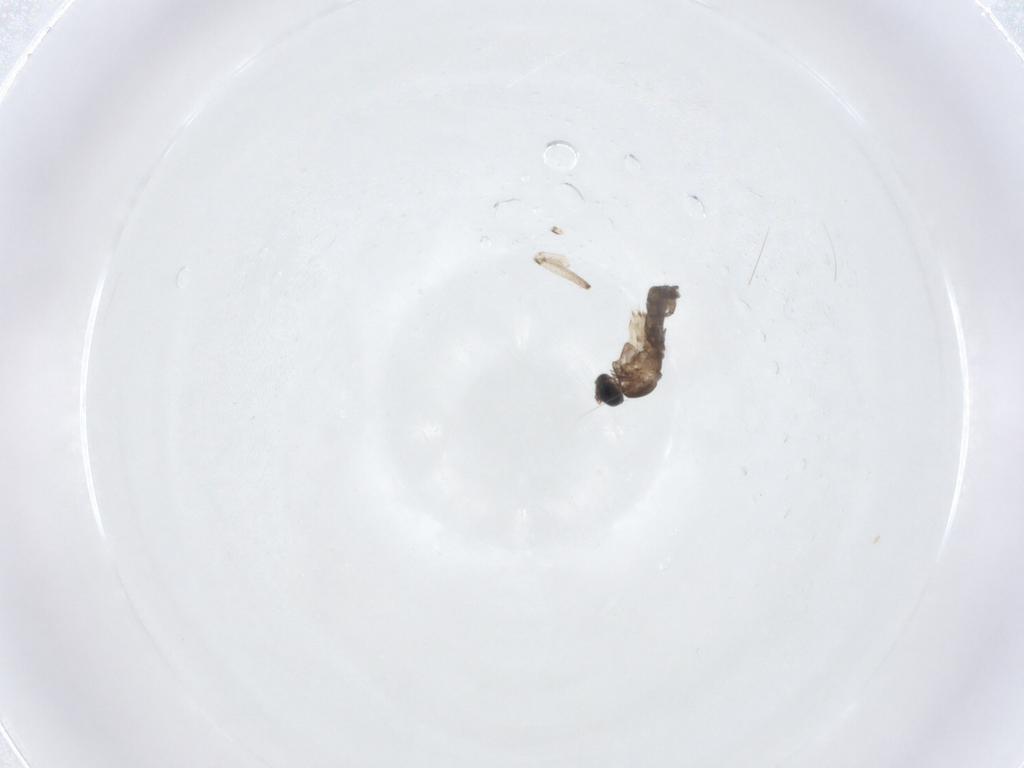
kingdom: Animalia
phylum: Arthropoda
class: Insecta
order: Diptera
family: Sciaridae
